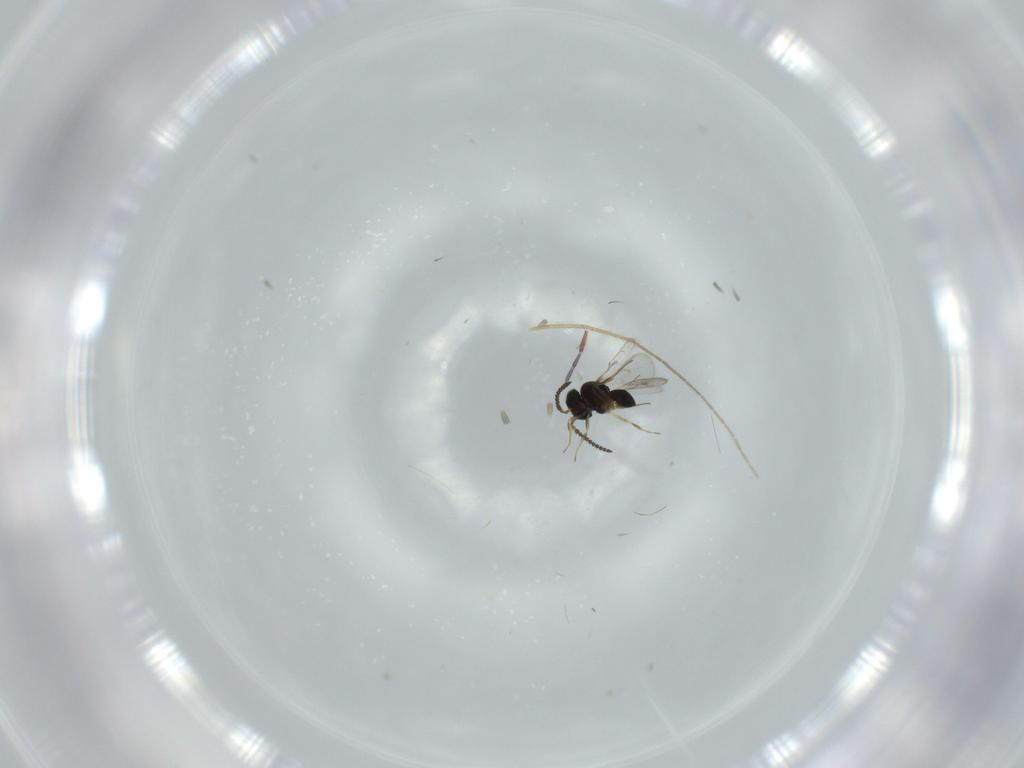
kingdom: Animalia
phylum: Arthropoda
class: Insecta
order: Hymenoptera
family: Scelionidae
